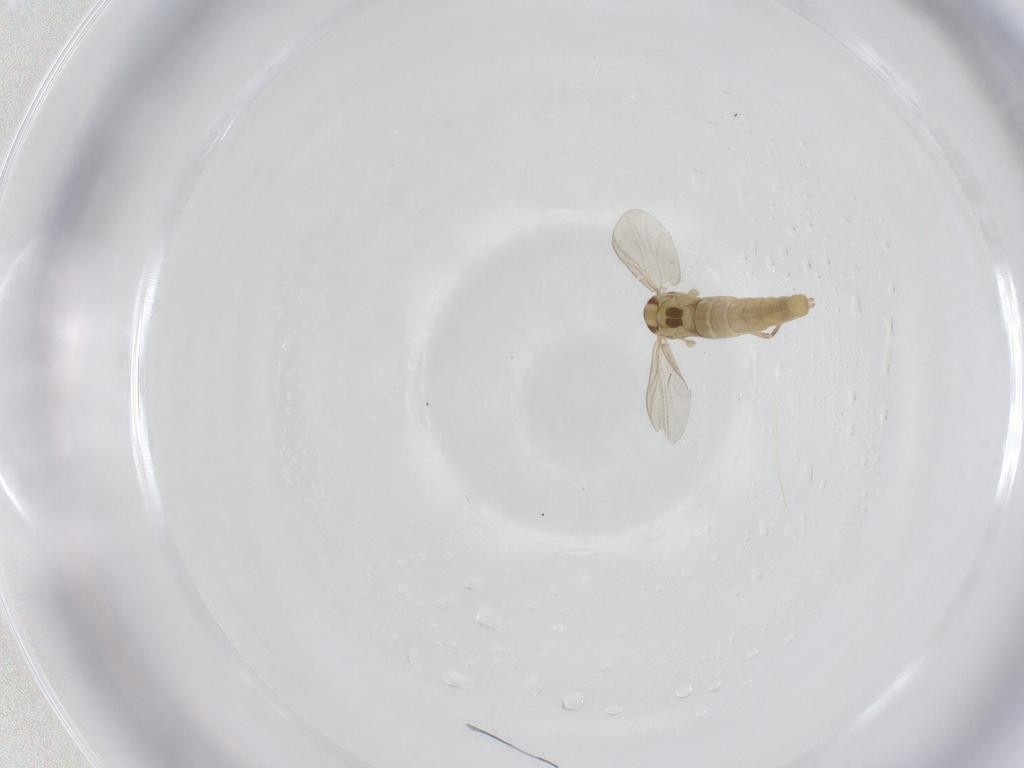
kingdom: Animalia
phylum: Arthropoda
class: Insecta
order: Diptera
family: Chironomidae
